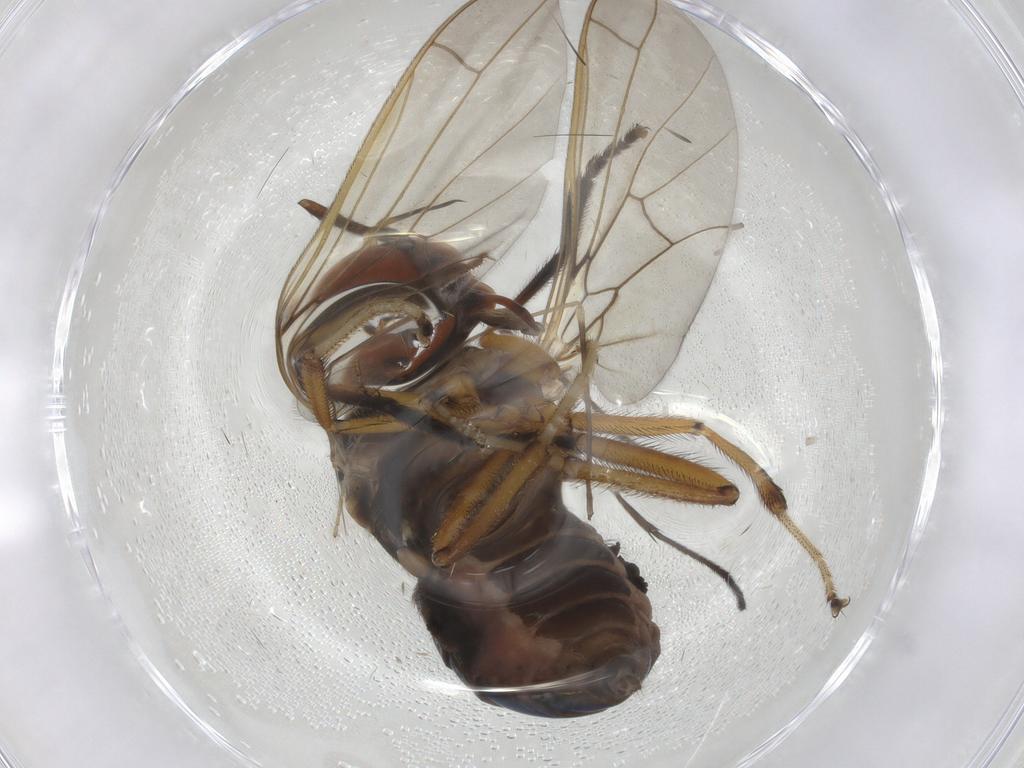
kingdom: Animalia
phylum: Arthropoda
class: Insecta
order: Diptera
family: Empididae
